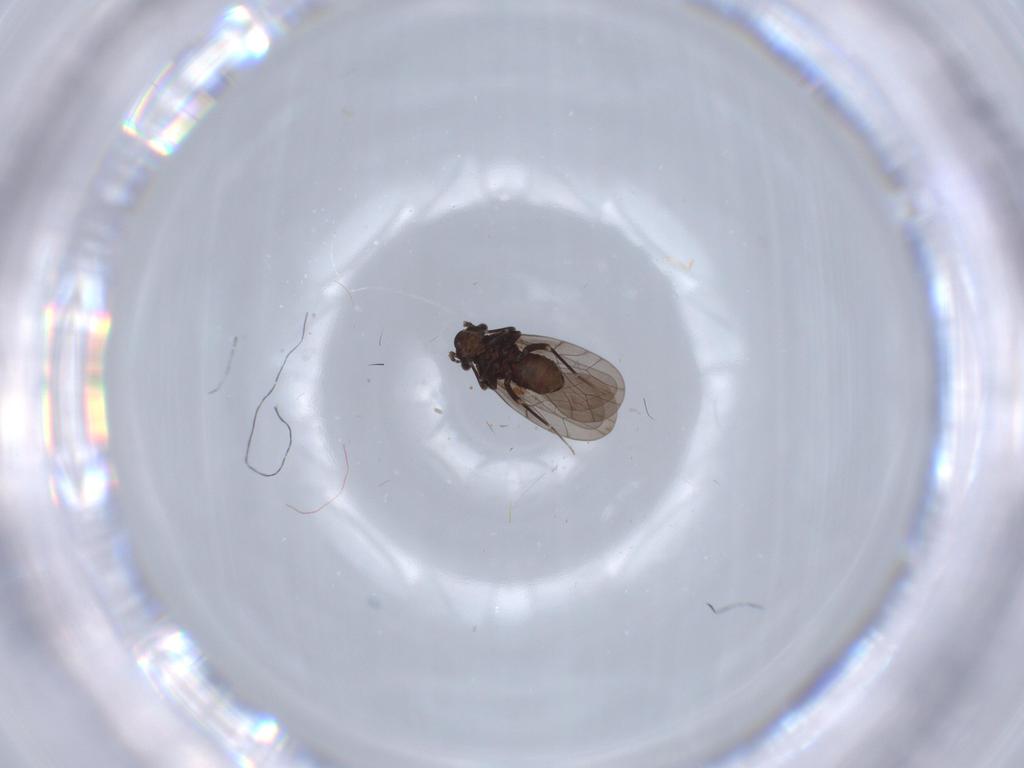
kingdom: Animalia
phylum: Arthropoda
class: Insecta
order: Psocodea
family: Lepidopsocidae
